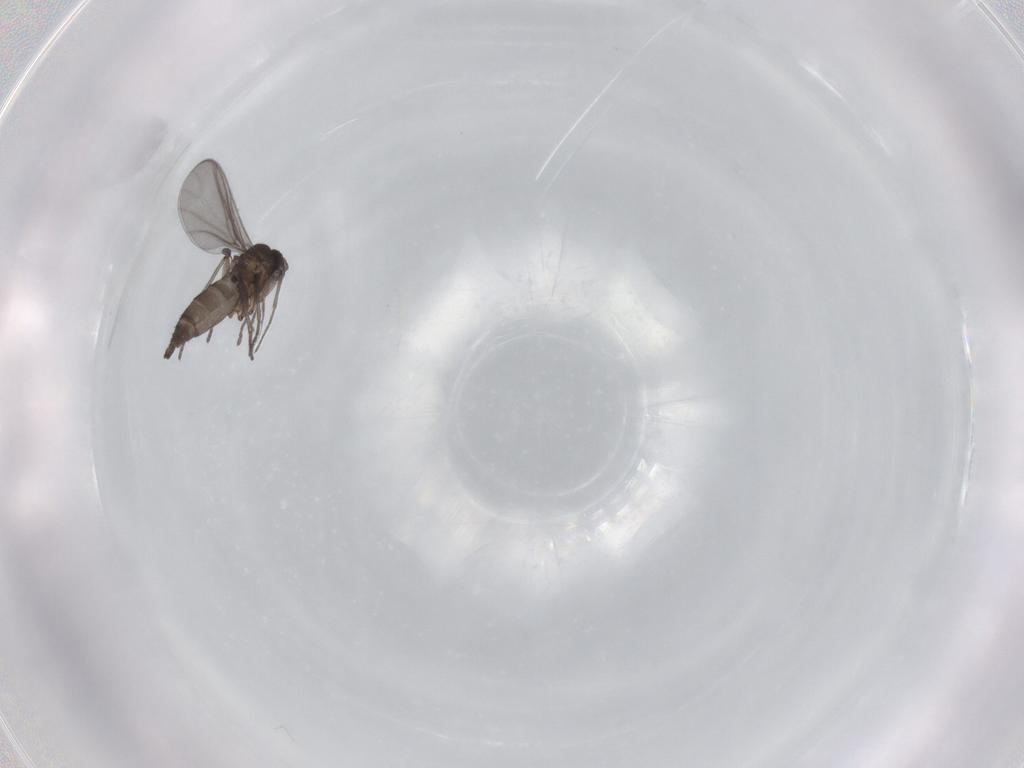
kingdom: Animalia
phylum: Arthropoda
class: Insecta
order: Diptera
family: Sciaridae
